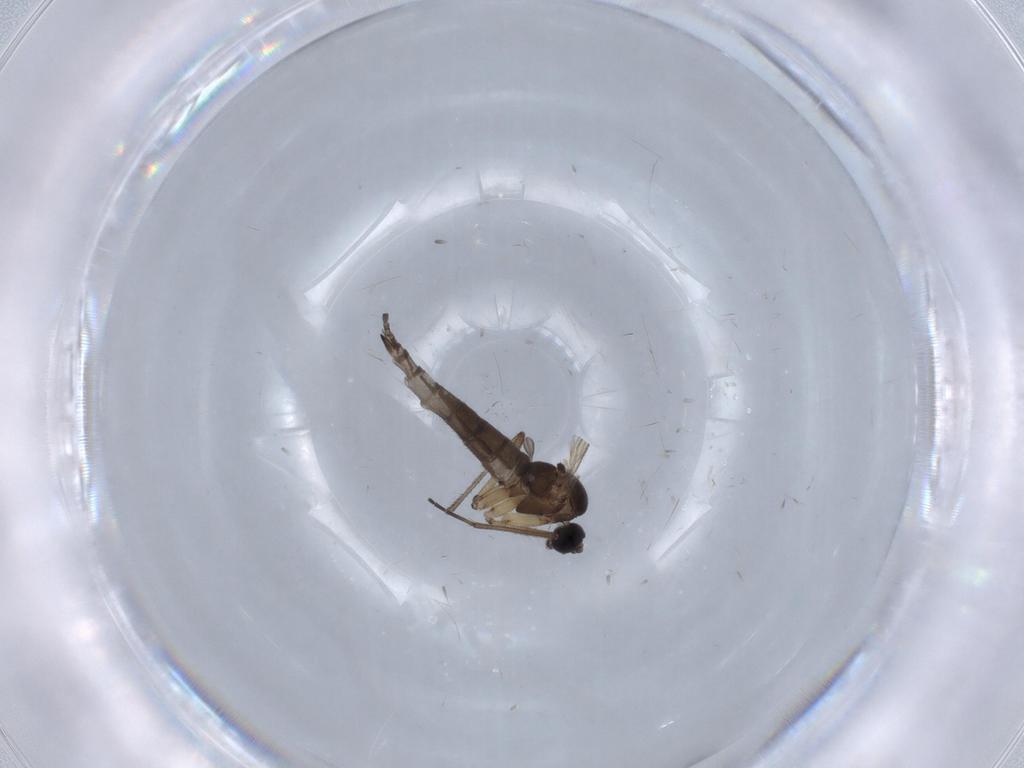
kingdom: Animalia
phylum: Arthropoda
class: Insecta
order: Diptera
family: Sciaridae
